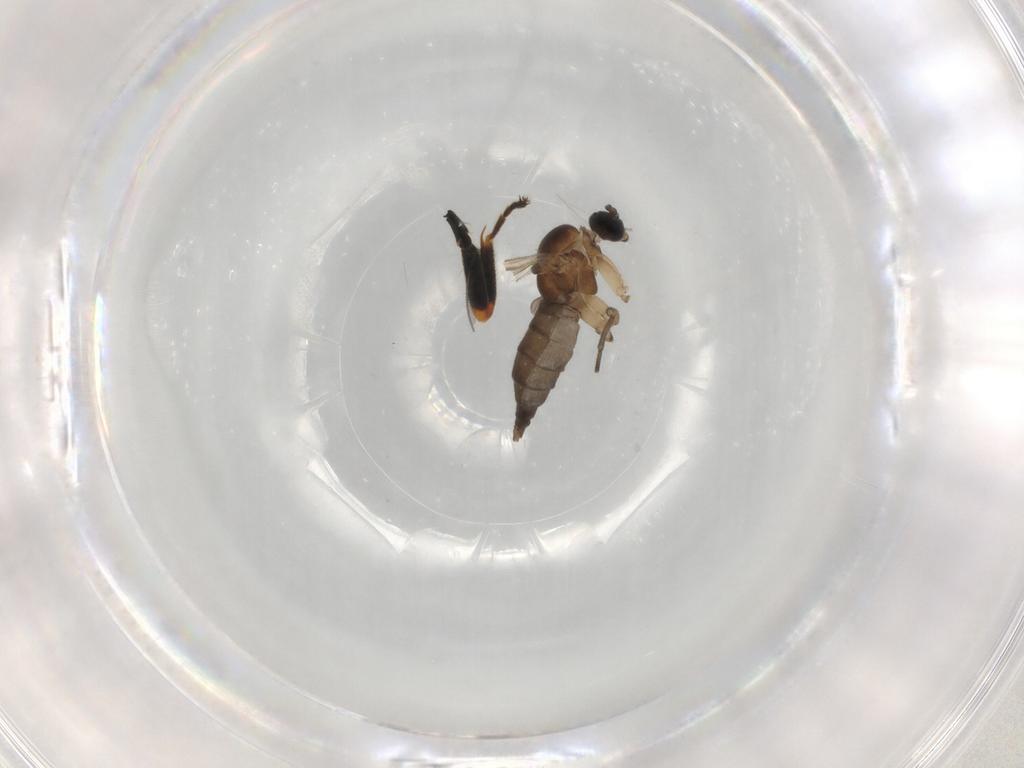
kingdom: Animalia
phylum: Arthropoda
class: Insecta
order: Diptera
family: Sciaridae
